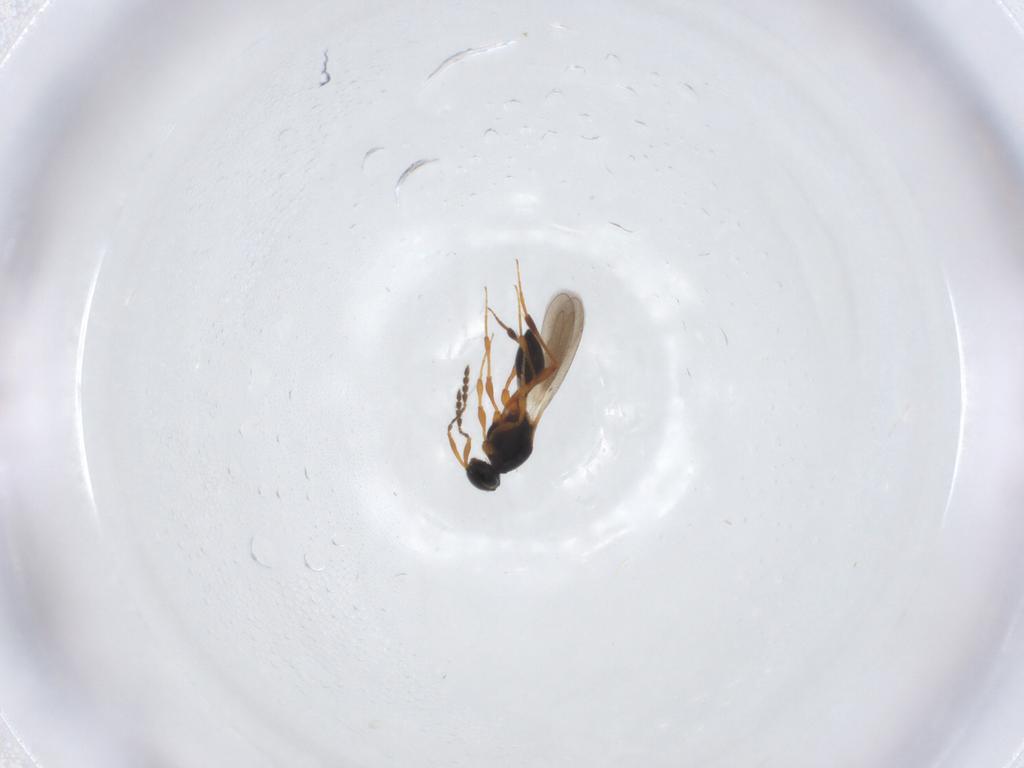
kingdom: Animalia
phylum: Arthropoda
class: Insecta
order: Hymenoptera
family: Platygastridae
